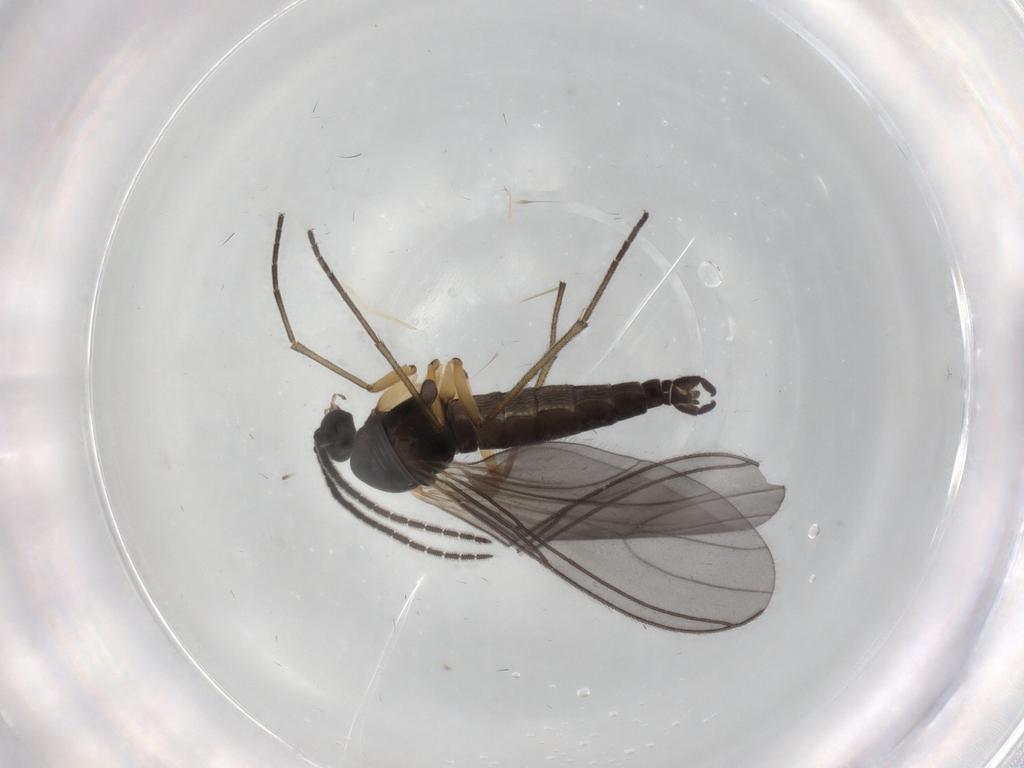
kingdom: Animalia
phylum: Arthropoda
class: Insecta
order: Diptera
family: Sciaridae
